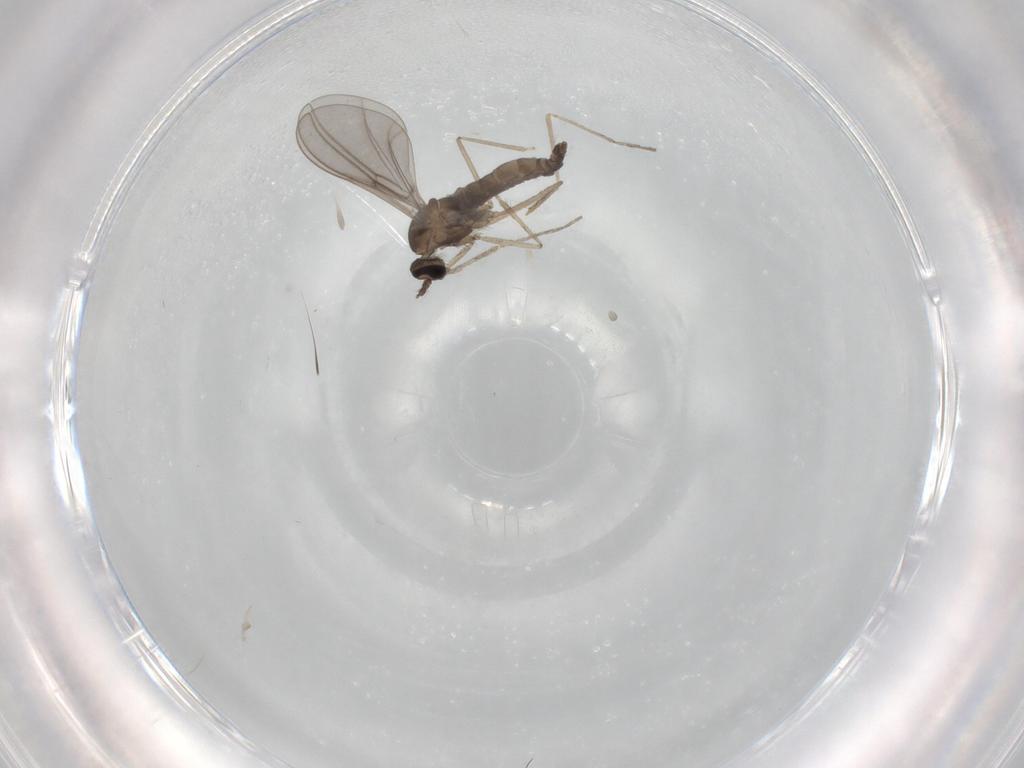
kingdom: Animalia
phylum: Arthropoda
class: Insecta
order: Diptera
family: Cecidomyiidae
